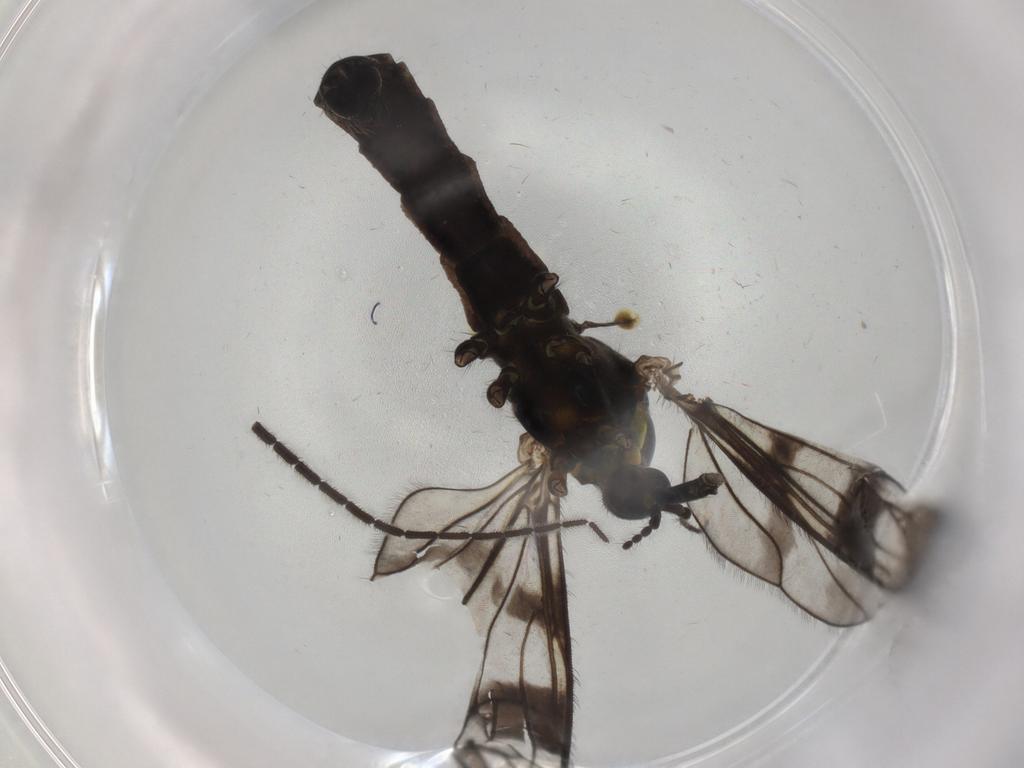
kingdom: Animalia
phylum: Arthropoda
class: Insecta
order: Diptera
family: Limoniidae
